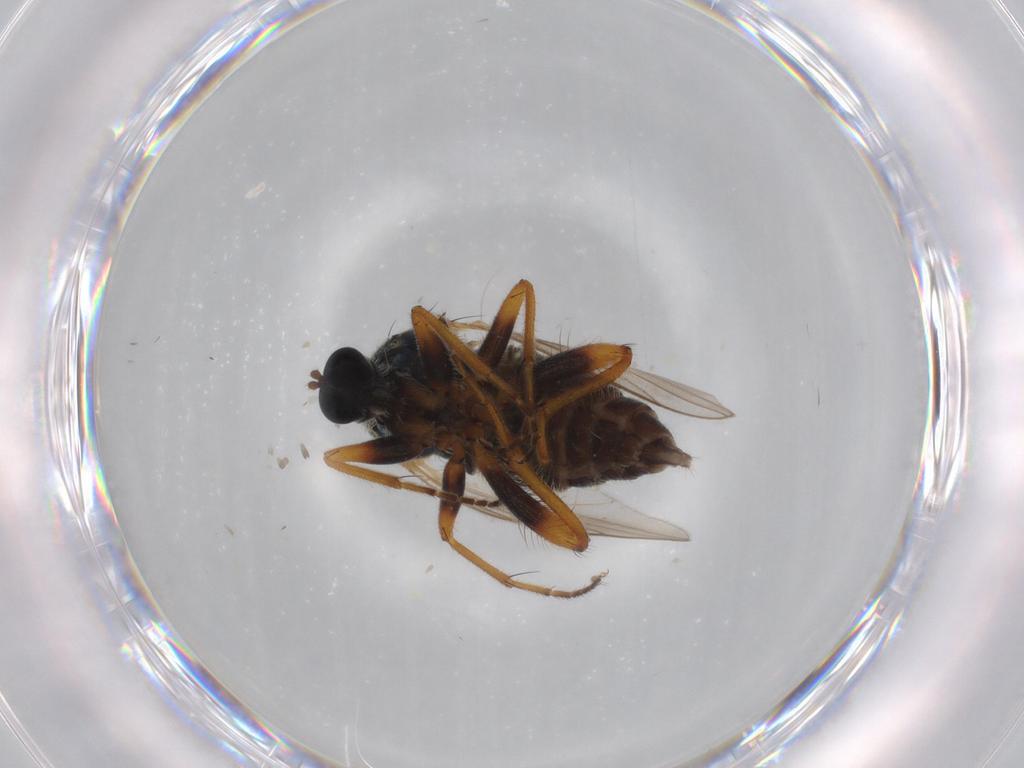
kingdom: Animalia
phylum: Arthropoda
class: Insecta
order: Diptera
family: Hybotidae
